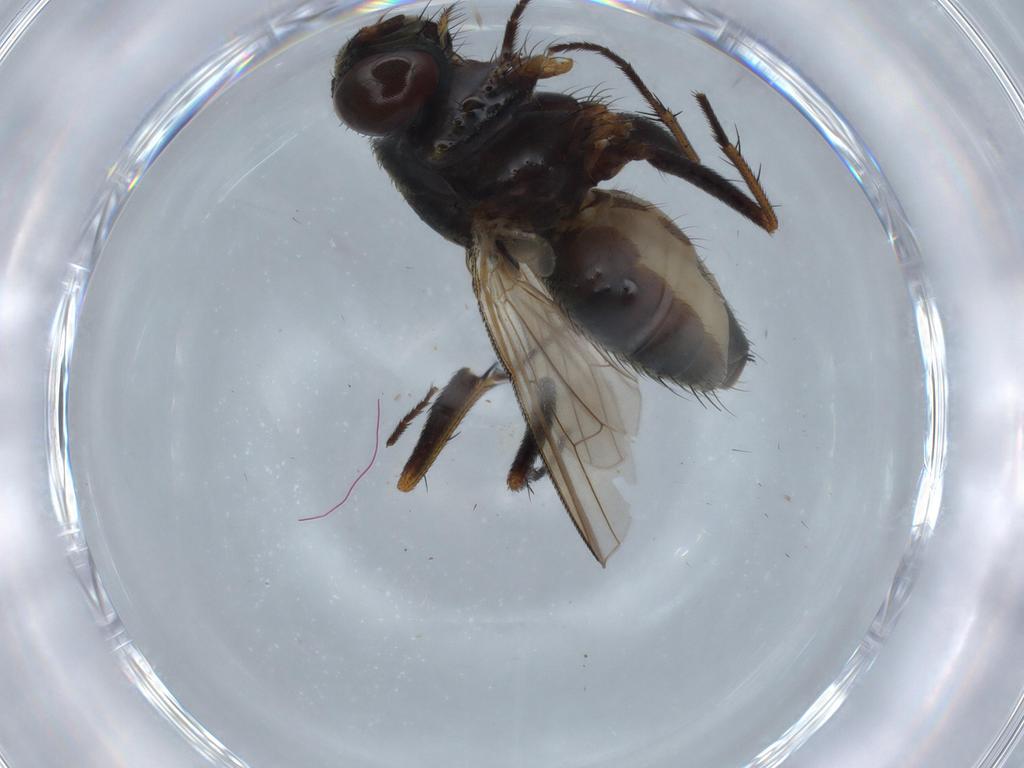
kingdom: Animalia
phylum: Arthropoda
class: Insecta
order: Diptera
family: Muscidae
